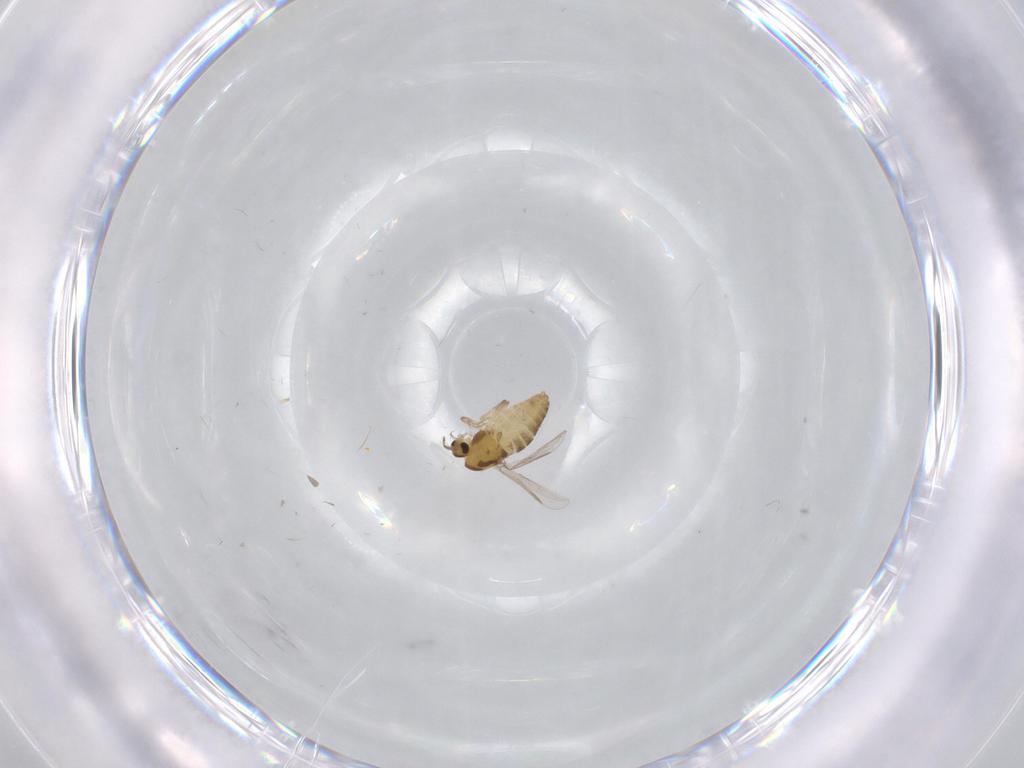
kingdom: Animalia
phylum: Arthropoda
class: Insecta
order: Diptera
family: Chironomidae
